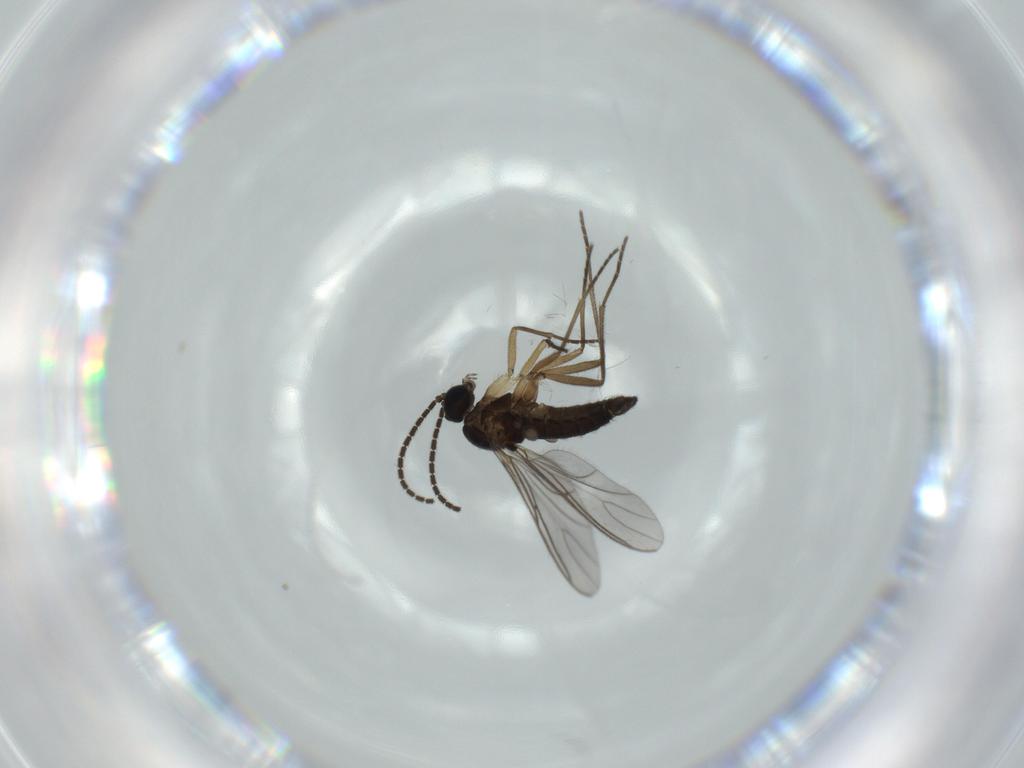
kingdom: Animalia
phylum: Arthropoda
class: Insecta
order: Diptera
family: Sciaridae
